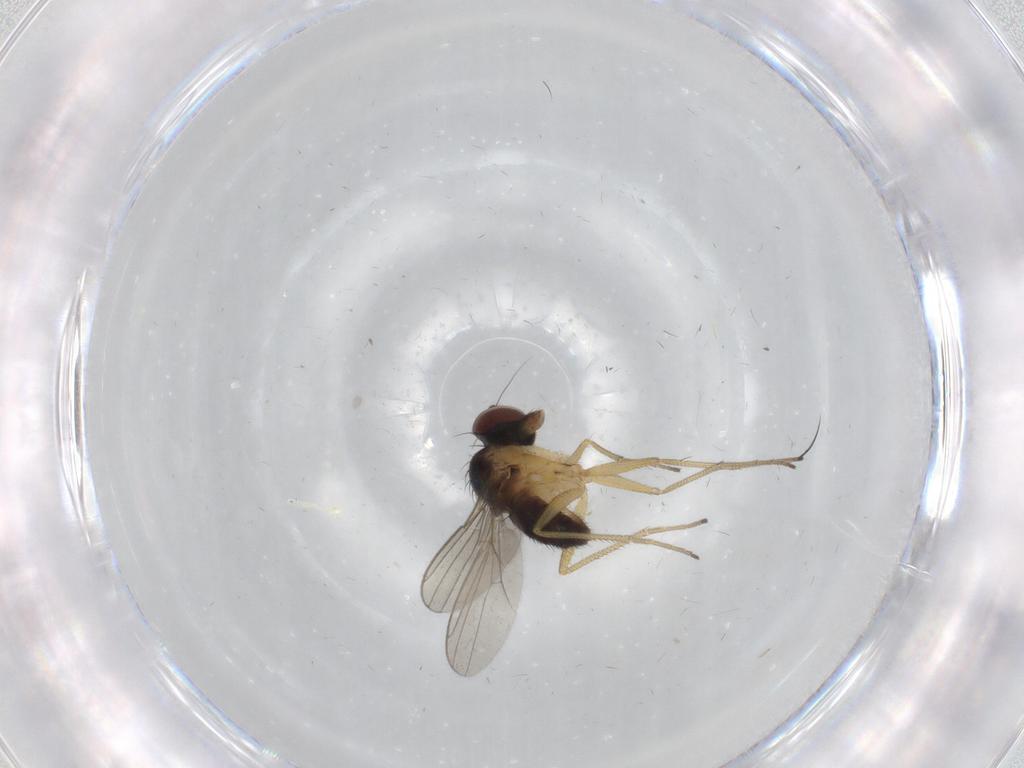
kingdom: Animalia
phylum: Arthropoda
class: Insecta
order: Diptera
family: Dolichopodidae
